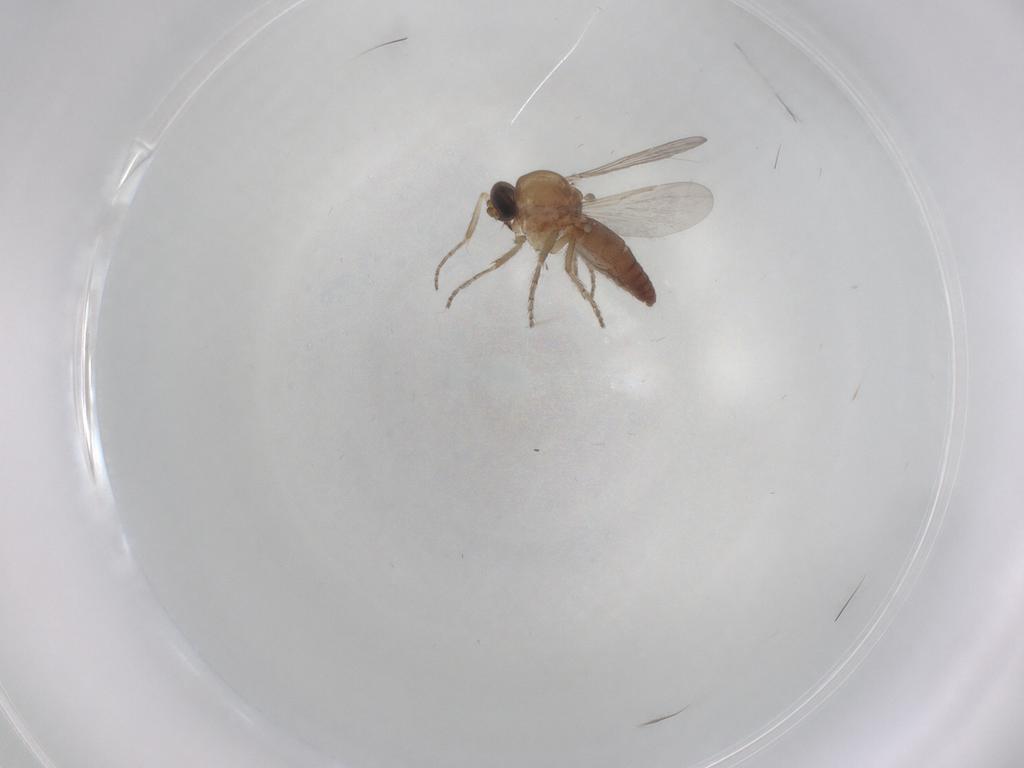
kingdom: Animalia
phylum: Arthropoda
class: Insecta
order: Diptera
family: Ceratopogonidae
